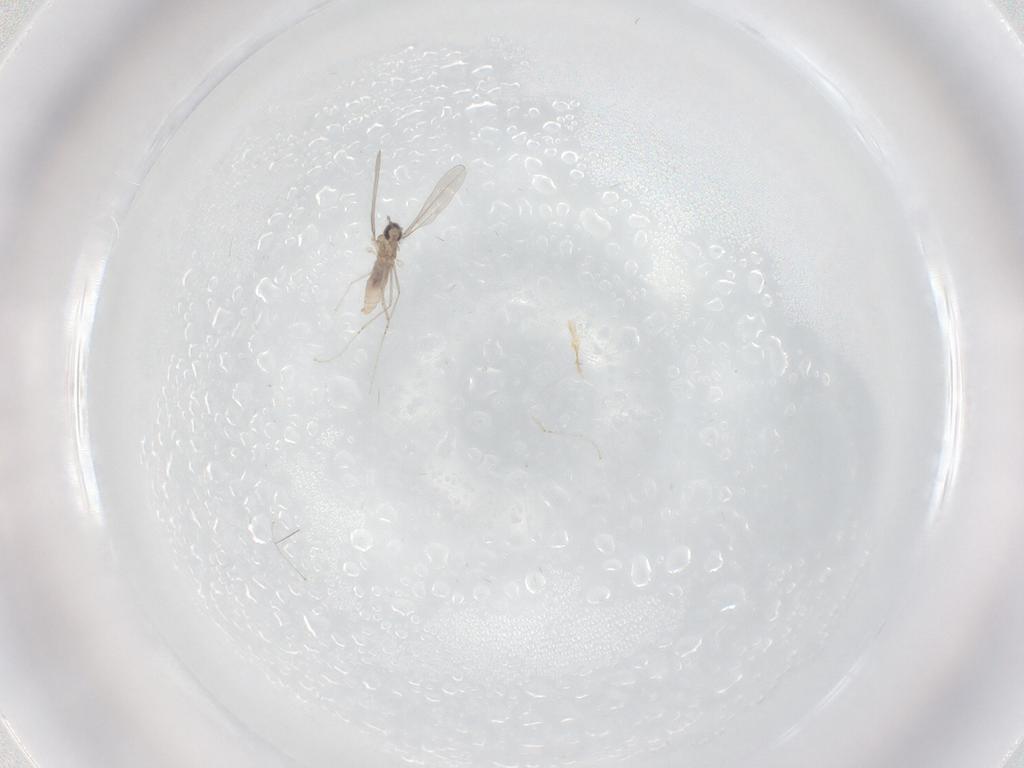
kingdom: Animalia
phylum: Arthropoda
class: Insecta
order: Diptera
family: Cecidomyiidae
